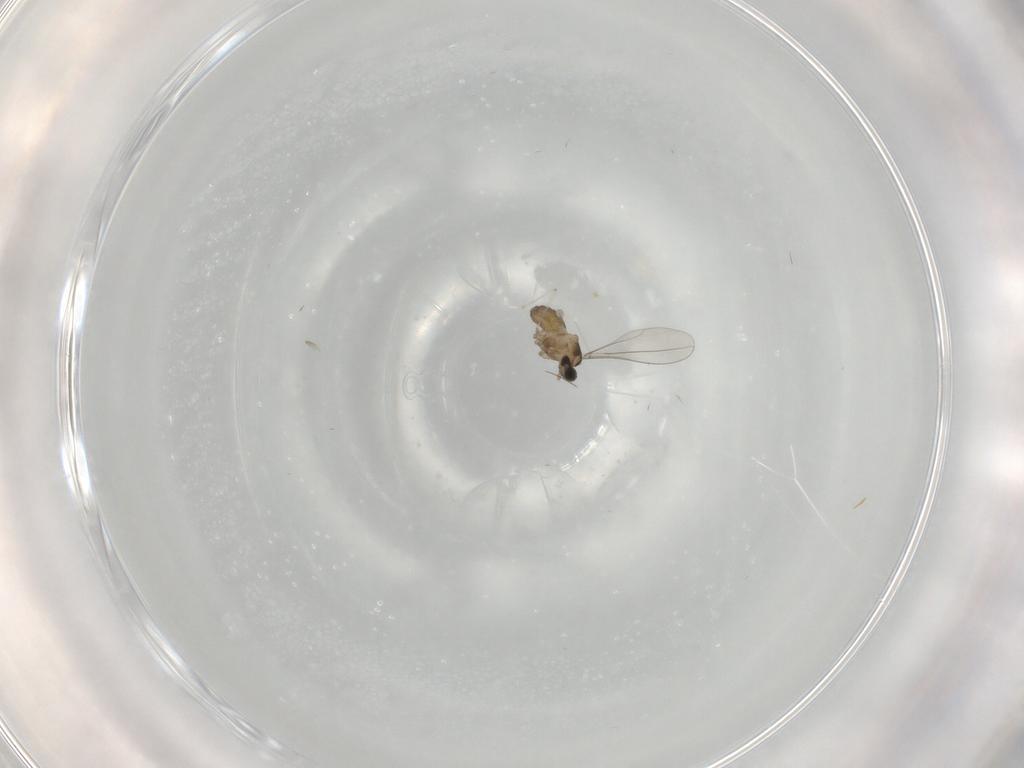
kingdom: Animalia
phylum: Arthropoda
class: Insecta
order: Diptera
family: Cecidomyiidae
